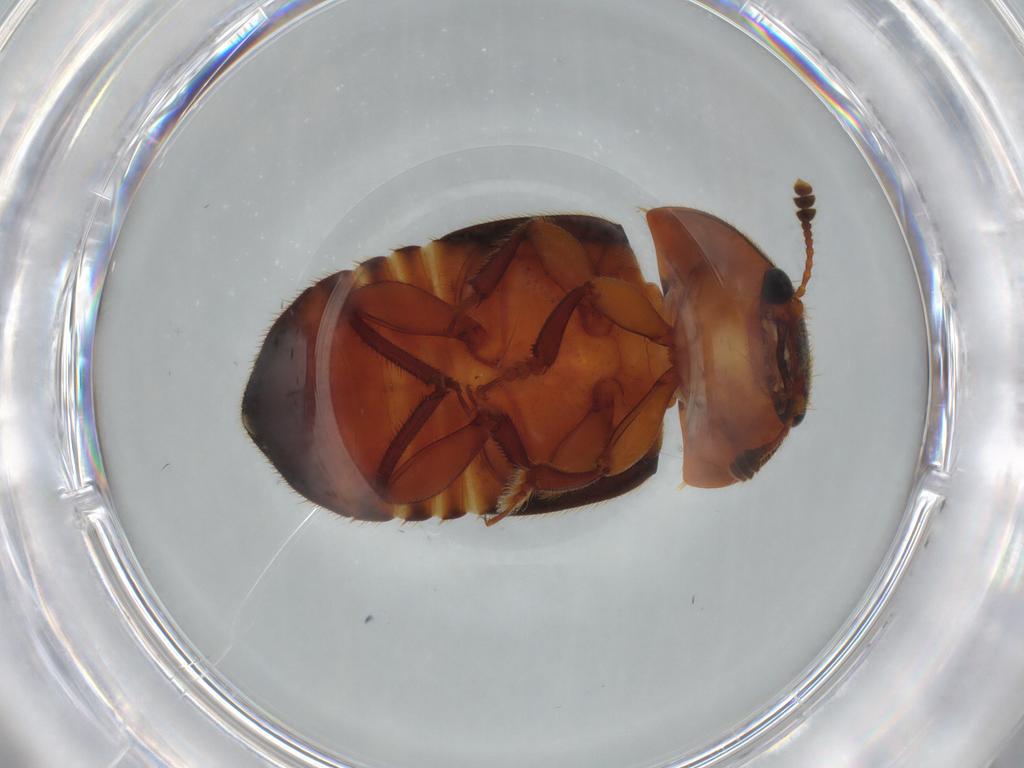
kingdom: Animalia
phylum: Arthropoda
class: Insecta
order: Coleoptera
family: Nitidulidae
